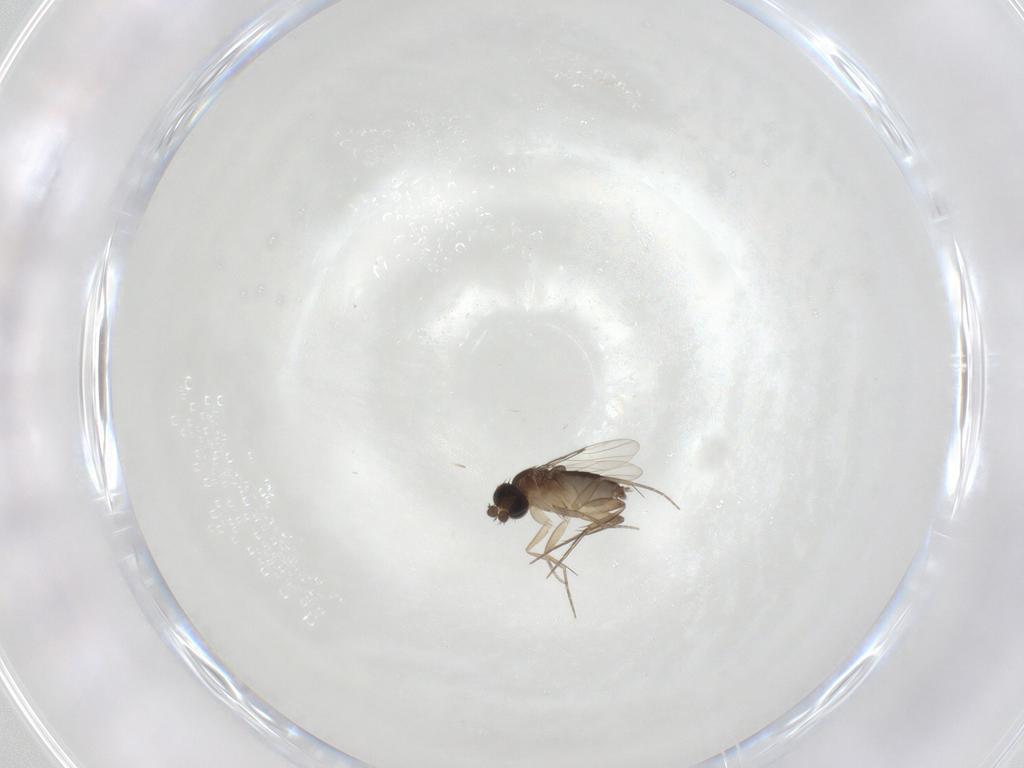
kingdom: Animalia
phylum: Arthropoda
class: Insecta
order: Diptera
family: Phoridae
